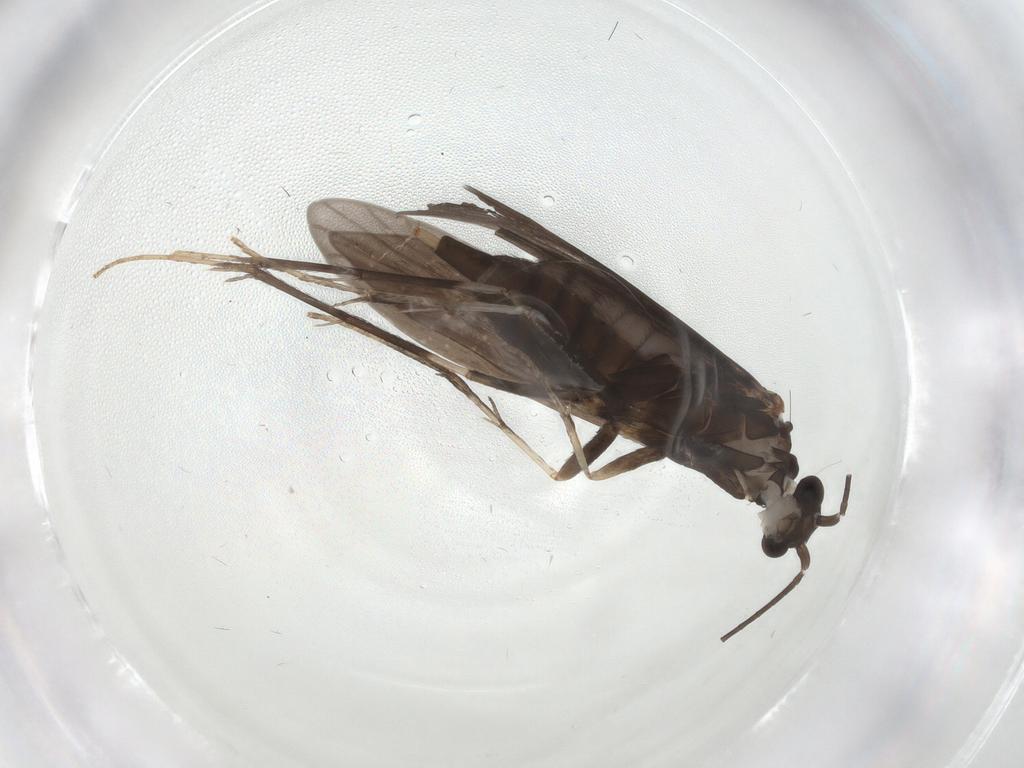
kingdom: Animalia
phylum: Arthropoda
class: Insecta
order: Trichoptera
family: Xiphocentronidae
